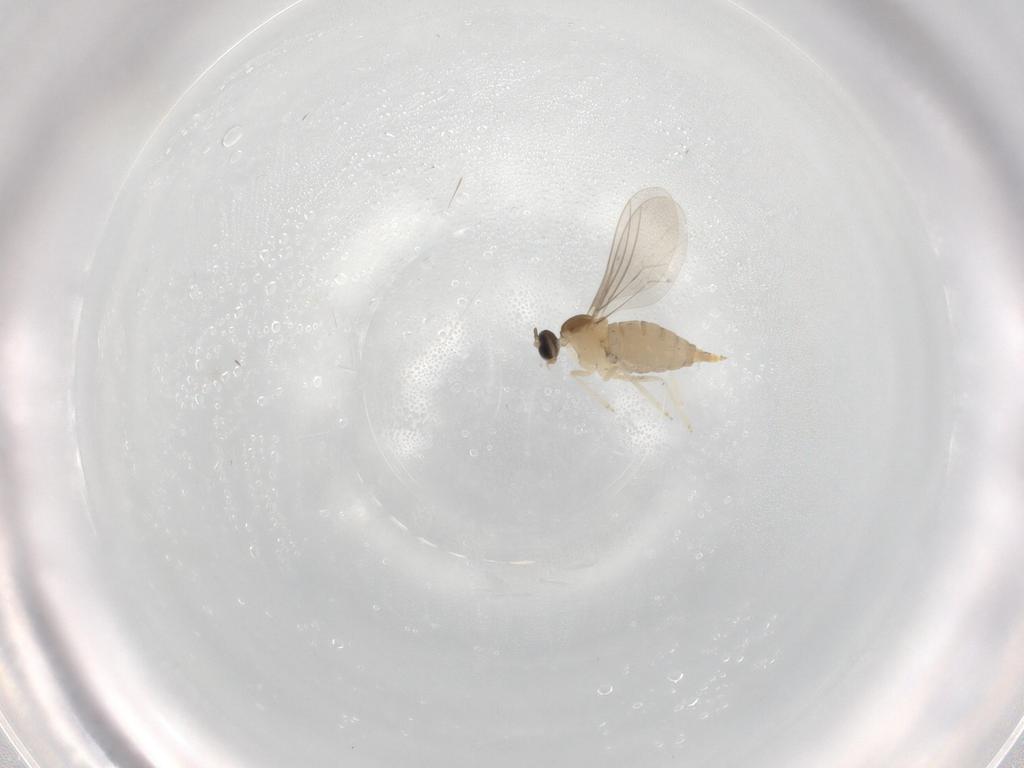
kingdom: Animalia
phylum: Arthropoda
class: Insecta
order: Diptera
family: Cecidomyiidae
